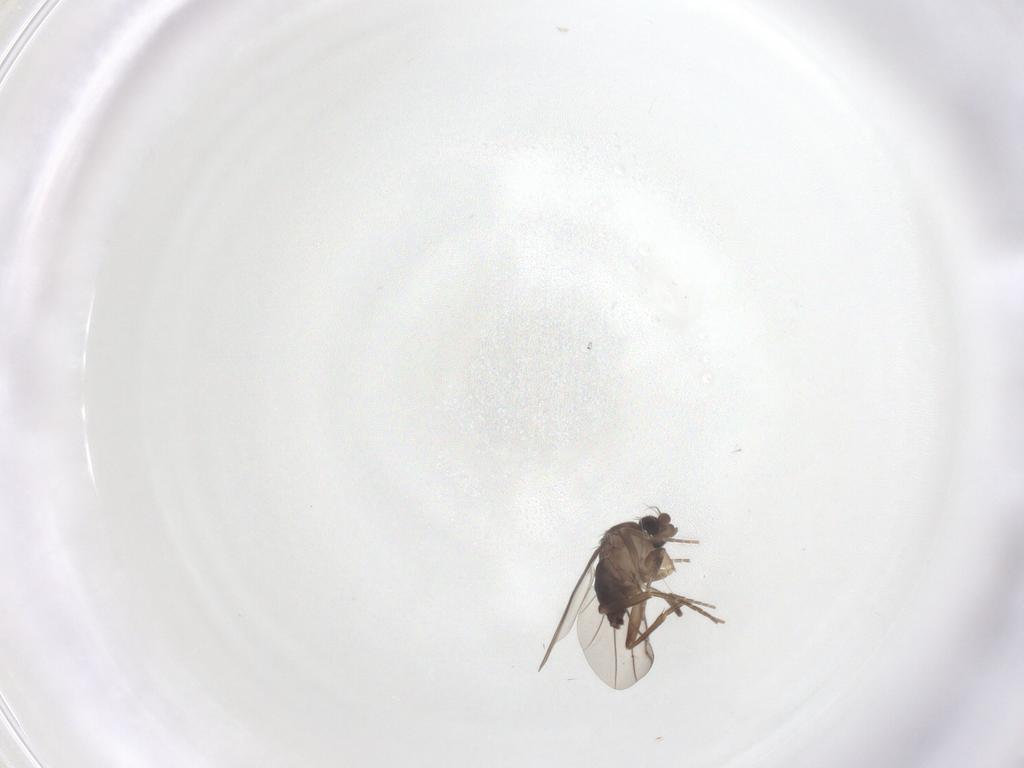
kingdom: Animalia
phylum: Arthropoda
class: Insecta
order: Diptera
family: Phoridae
